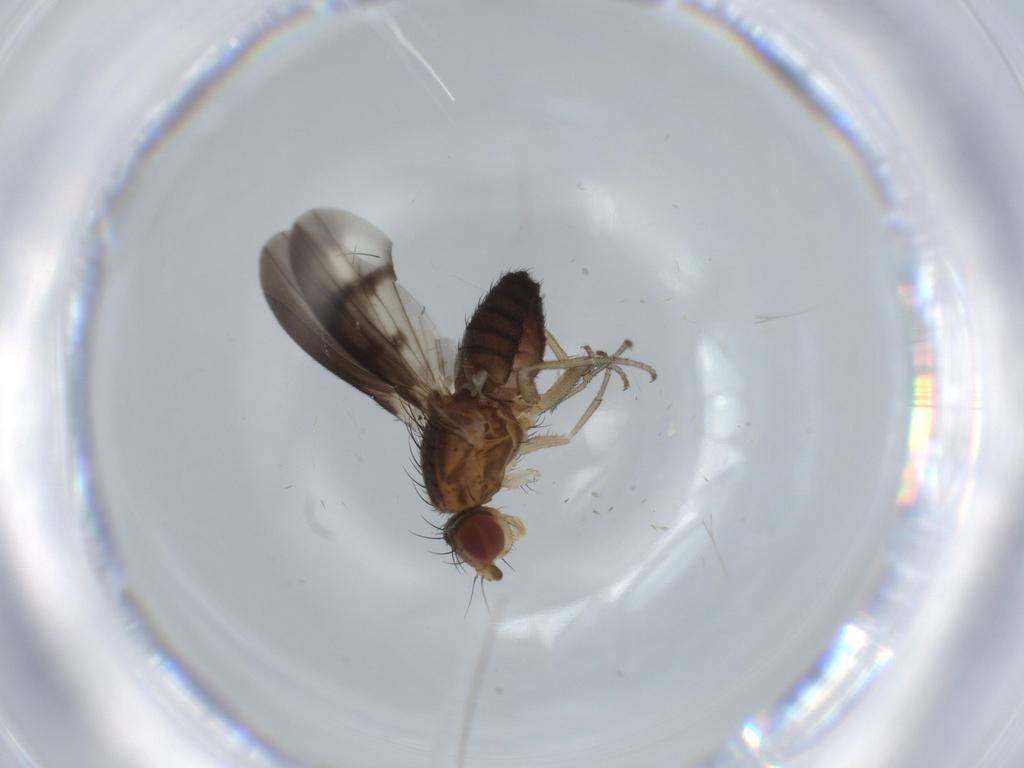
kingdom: Animalia
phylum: Arthropoda
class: Insecta
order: Diptera
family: Heleomyzidae
